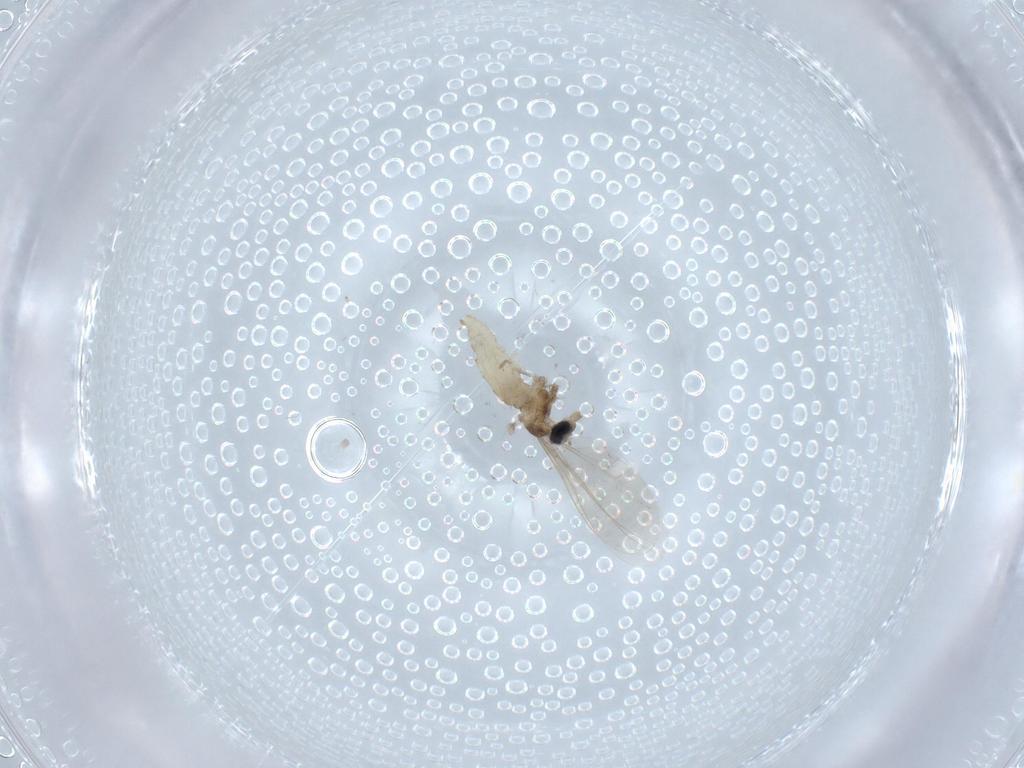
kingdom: Animalia
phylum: Arthropoda
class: Insecta
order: Diptera
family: Cecidomyiidae
